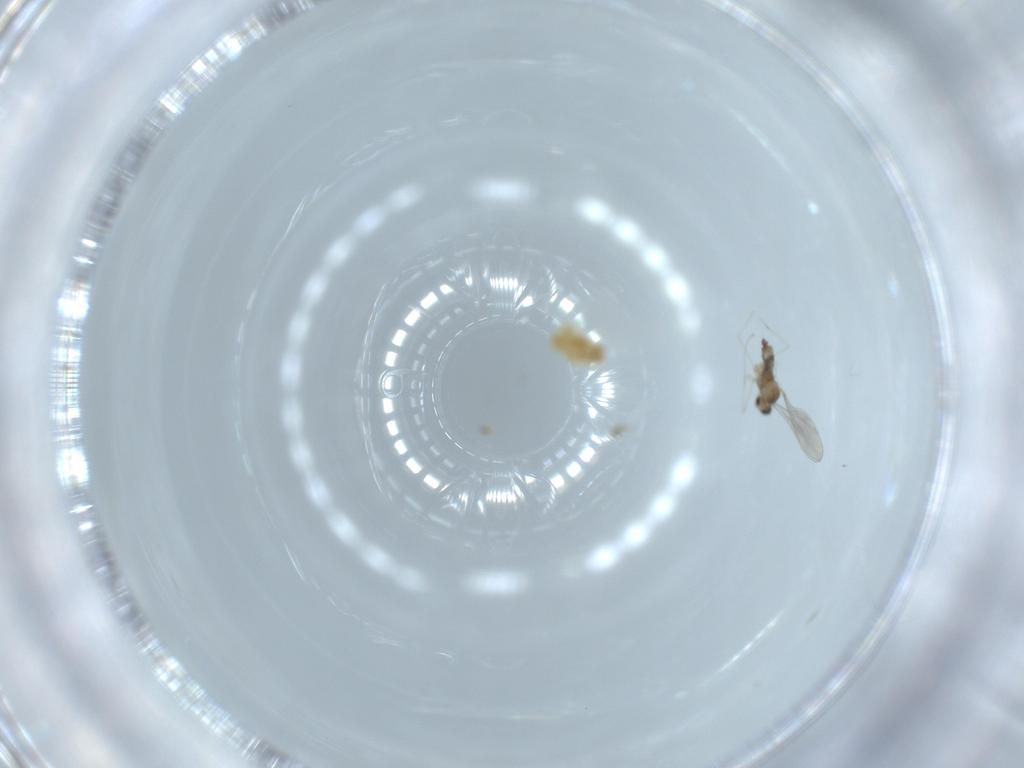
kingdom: Animalia
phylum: Arthropoda
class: Insecta
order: Diptera
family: Cecidomyiidae
